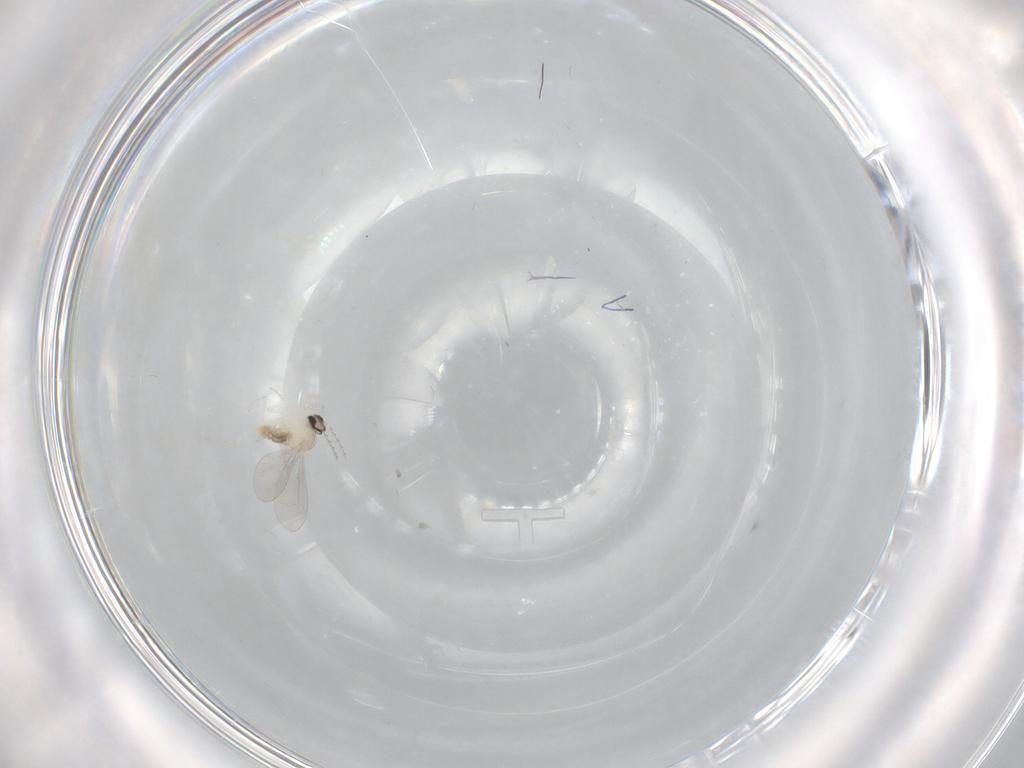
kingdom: Animalia
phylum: Arthropoda
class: Insecta
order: Diptera
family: Cecidomyiidae
